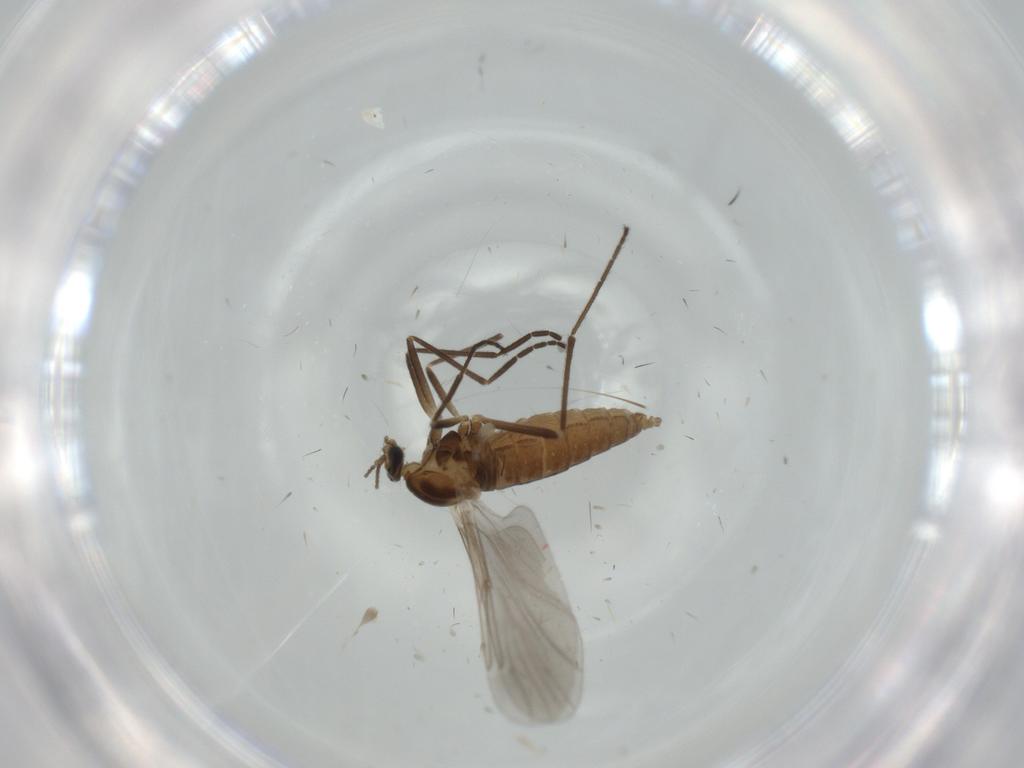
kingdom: Animalia
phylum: Arthropoda
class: Insecta
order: Diptera
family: Cecidomyiidae
